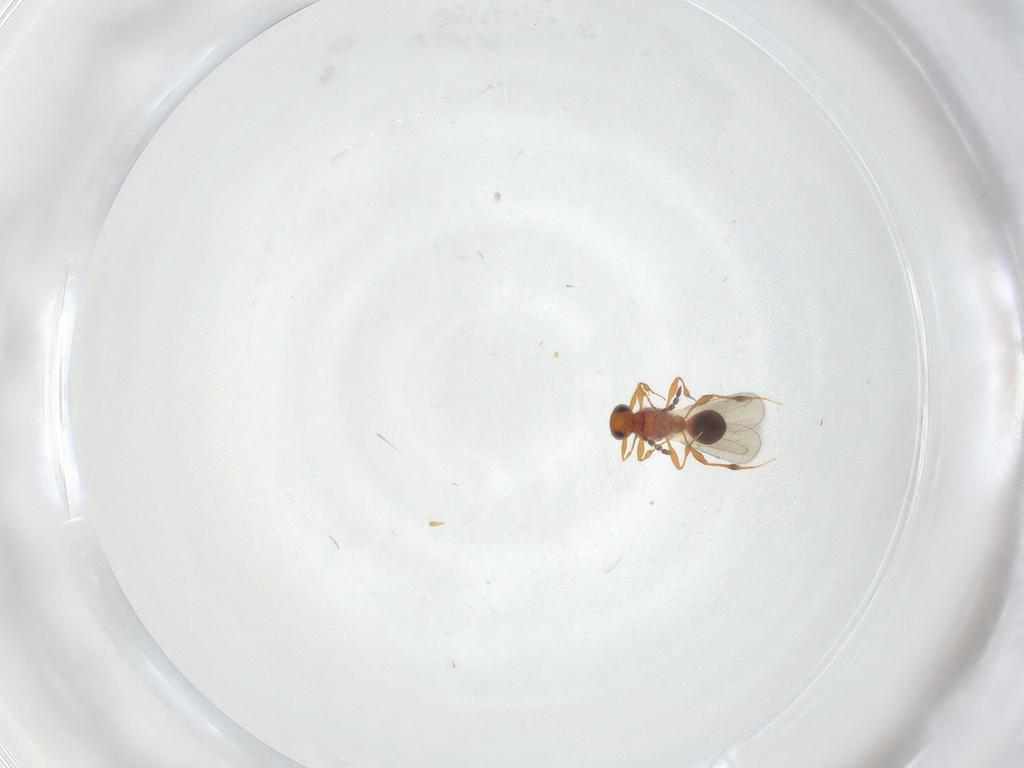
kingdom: Animalia
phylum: Arthropoda
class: Insecta
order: Hymenoptera
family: Platygastridae
